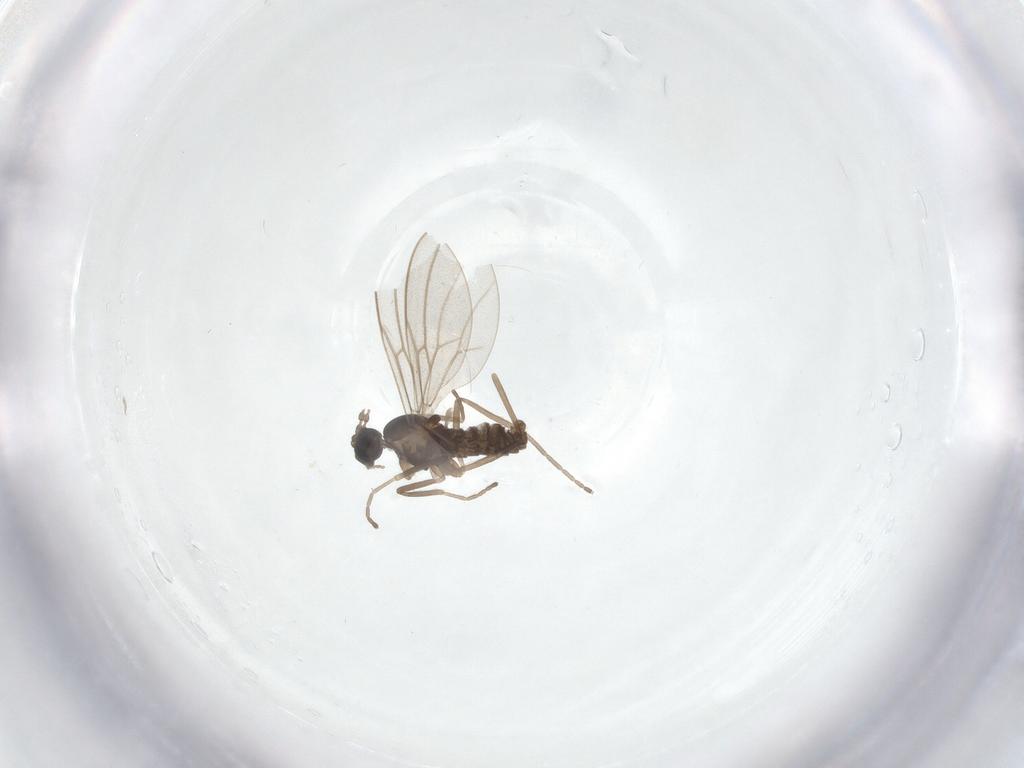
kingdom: Animalia
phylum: Arthropoda
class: Insecta
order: Diptera
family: Cecidomyiidae
